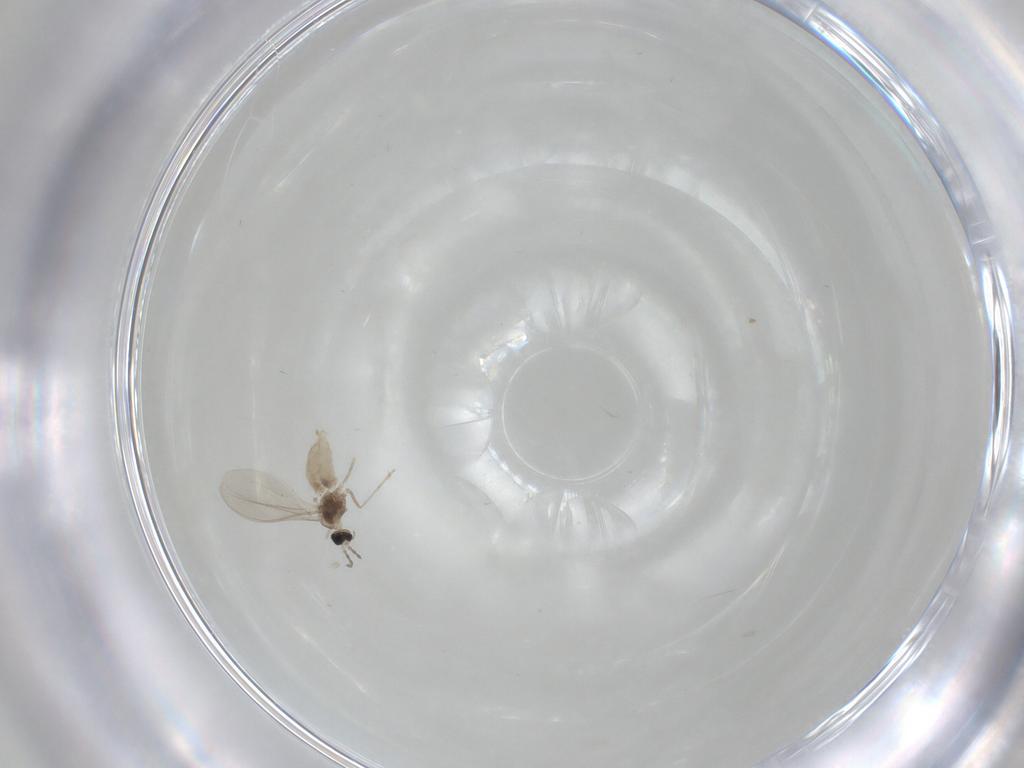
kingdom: Animalia
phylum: Arthropoda
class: Insecta
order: Diptera
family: Cecidomyiidae
